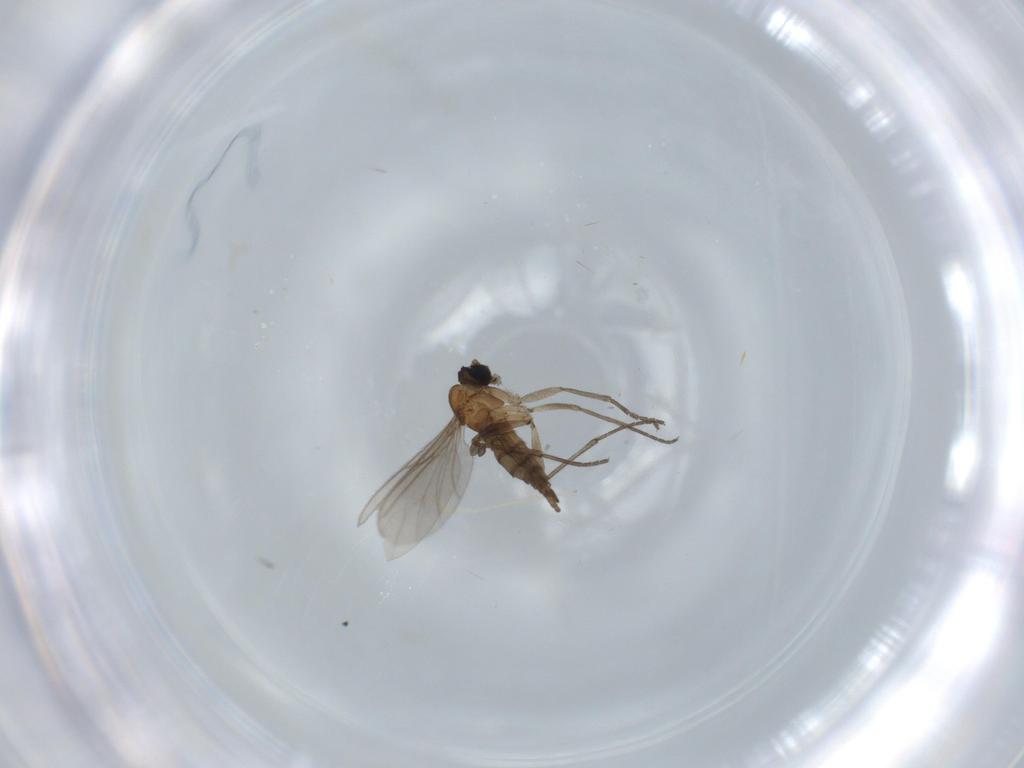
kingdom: Animalia
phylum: Arthropoda
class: Insecta
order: Diptera
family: Sciaridae
